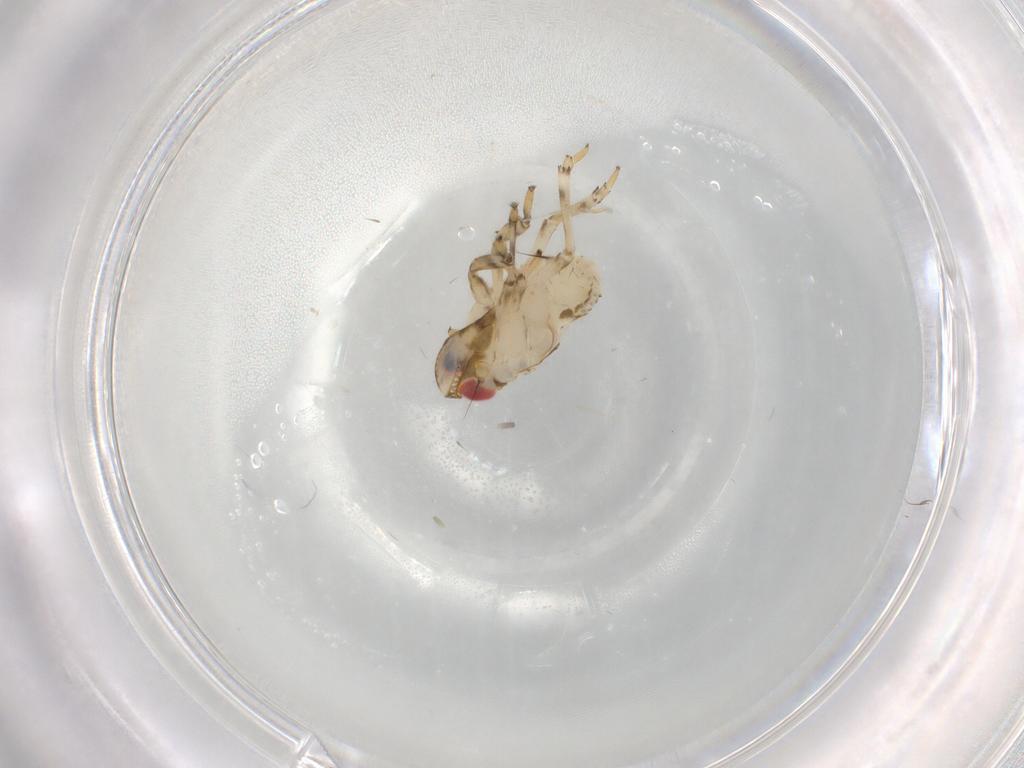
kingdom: Animalia
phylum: Arthropoda
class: Insecta
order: Hemiptera
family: Issidae
